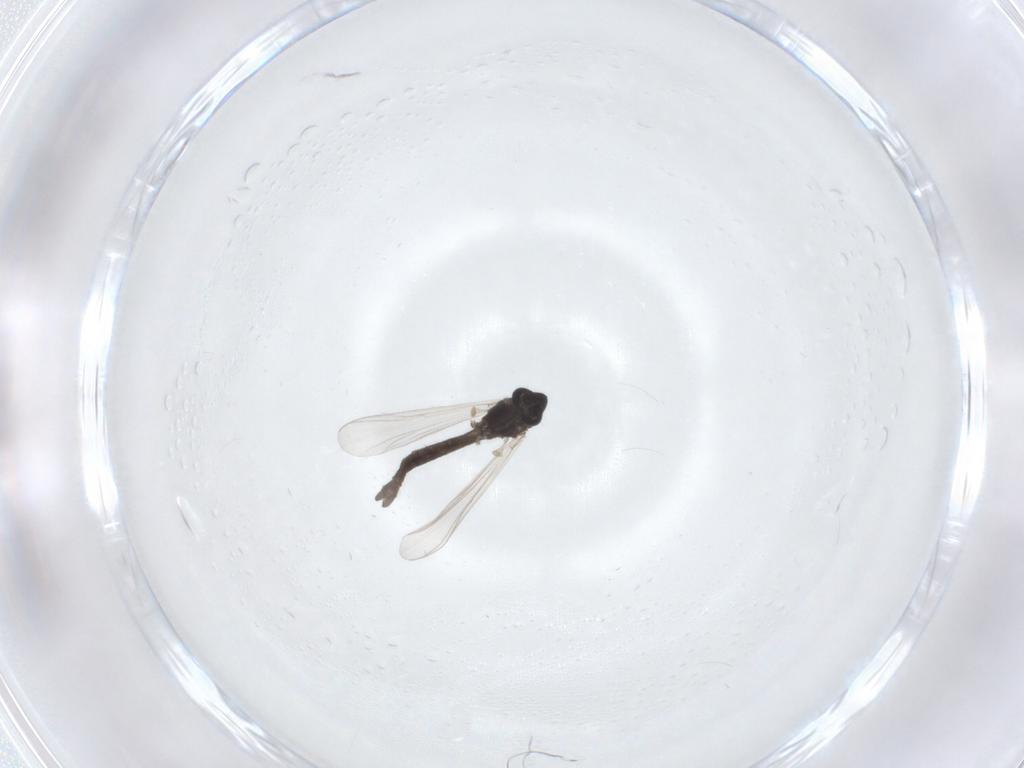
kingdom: Animalia
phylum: Arthropoda
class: Insecta
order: Diptera
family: Chironomidae
